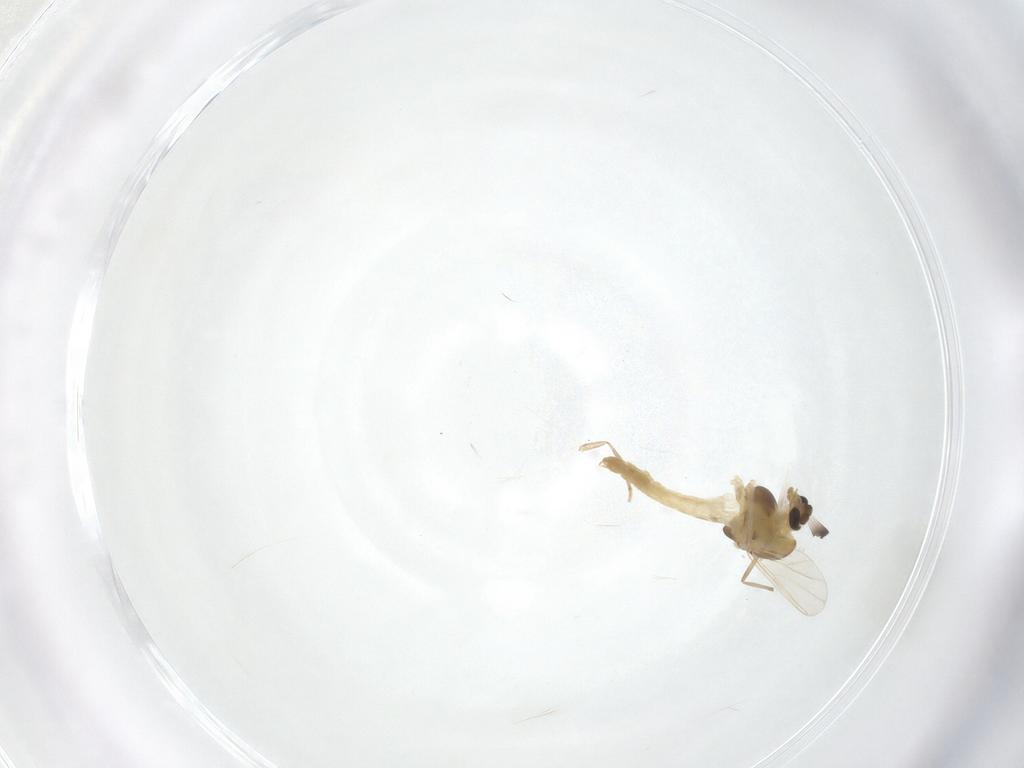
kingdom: Animalia
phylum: Arthropoda
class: Insecta
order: Diptera
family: Chironomidae
